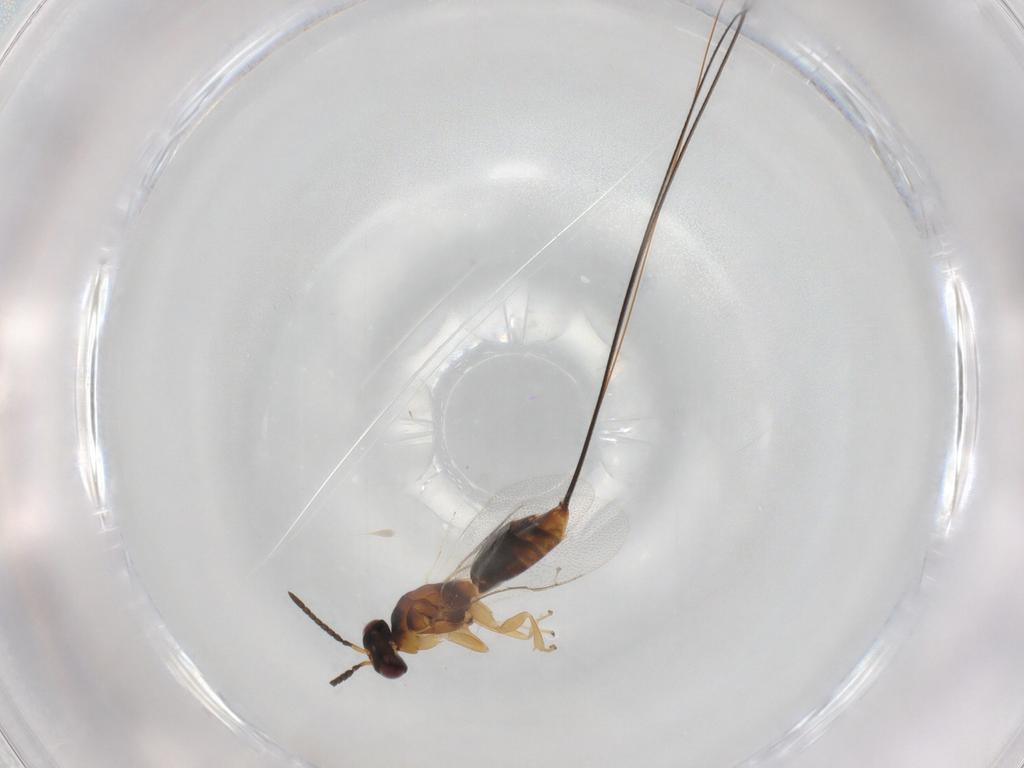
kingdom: Animalia
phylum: Arthropoda
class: Insecta
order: Hymenoptera
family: Pteromalidae
